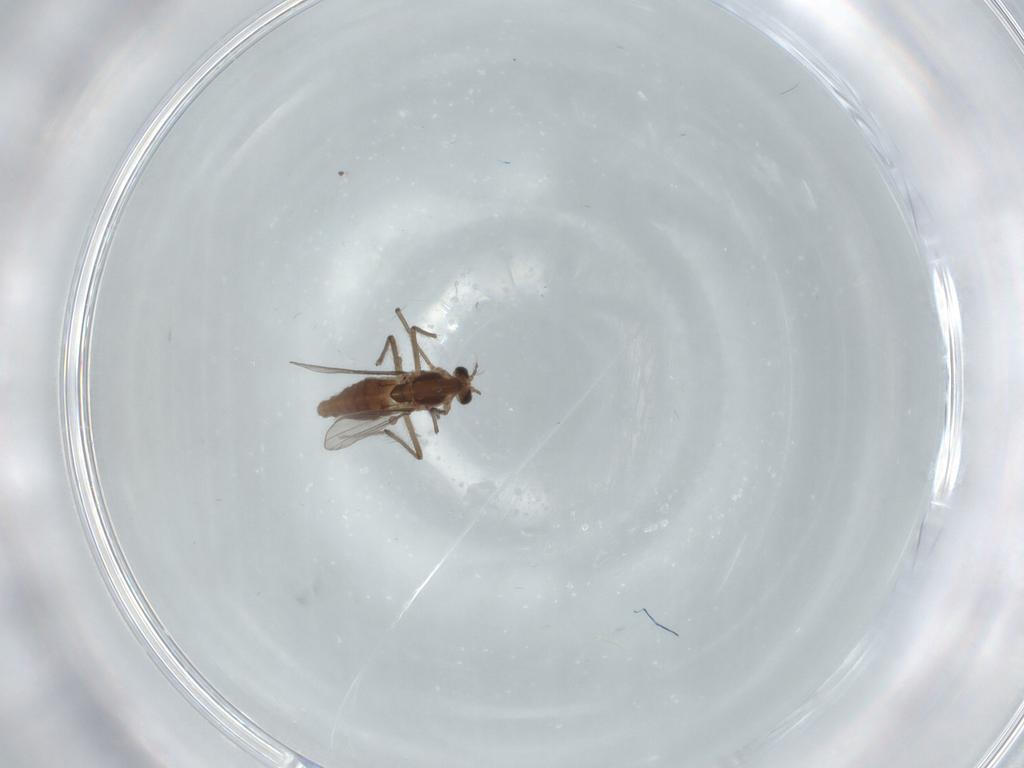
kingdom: Animalia
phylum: Arthropoda
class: Insecta
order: Diptera
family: Chironomidae
